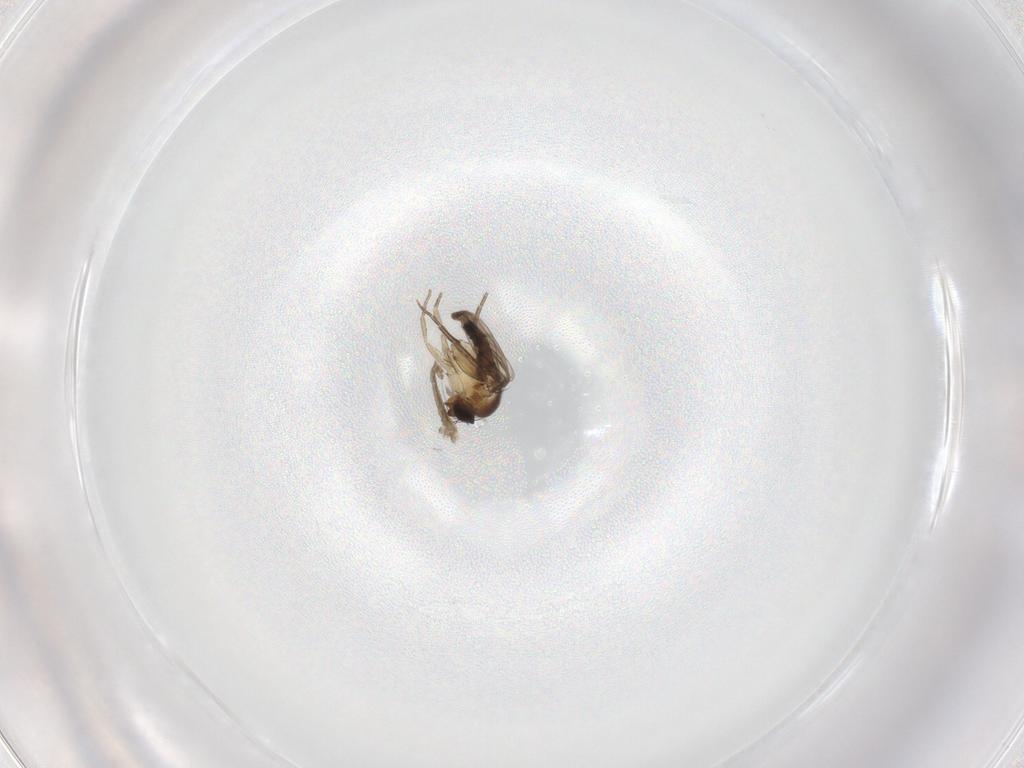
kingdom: Animalia
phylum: Arthropoda
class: Insecta
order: Diptera
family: Phoridae
